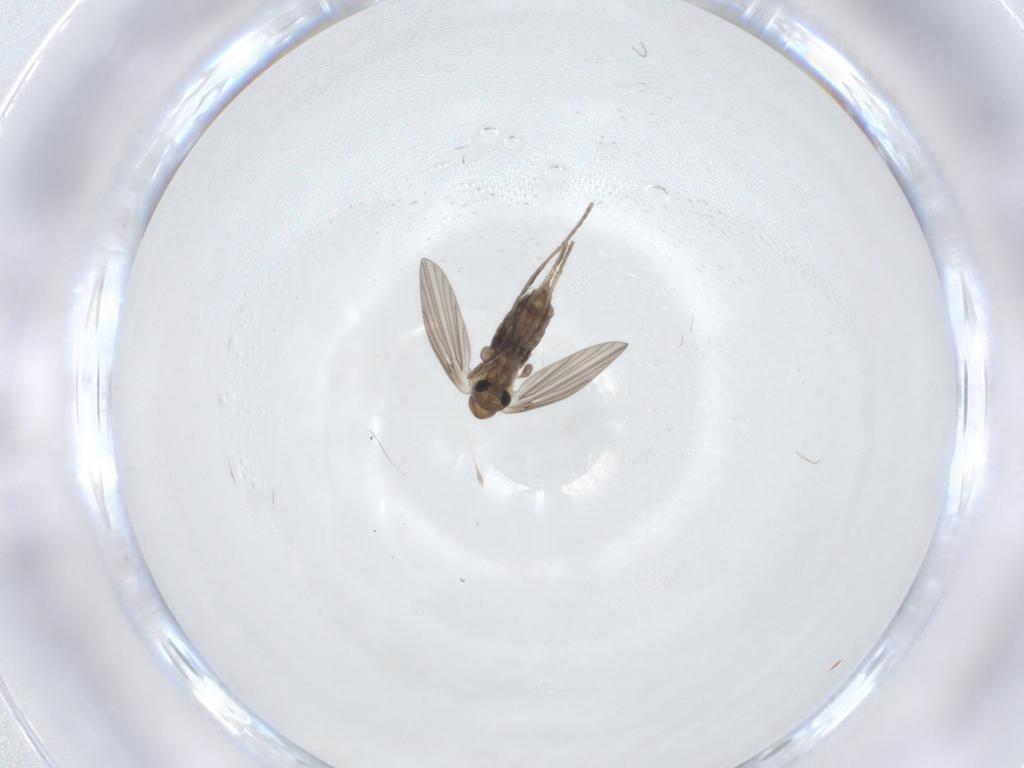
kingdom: Animalia
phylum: Arthropoda
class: Insecta
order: Diptera
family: Psychodidae
